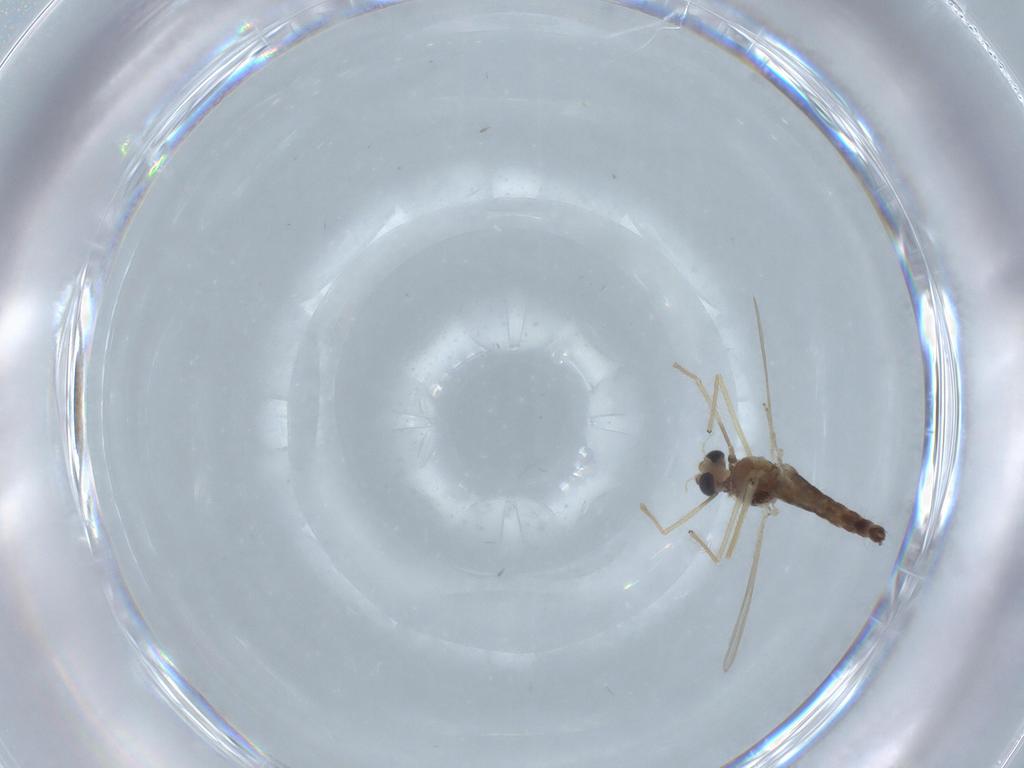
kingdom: Animalia
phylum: Arthropoda
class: Insecta
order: Diptera
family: Chironomidae
